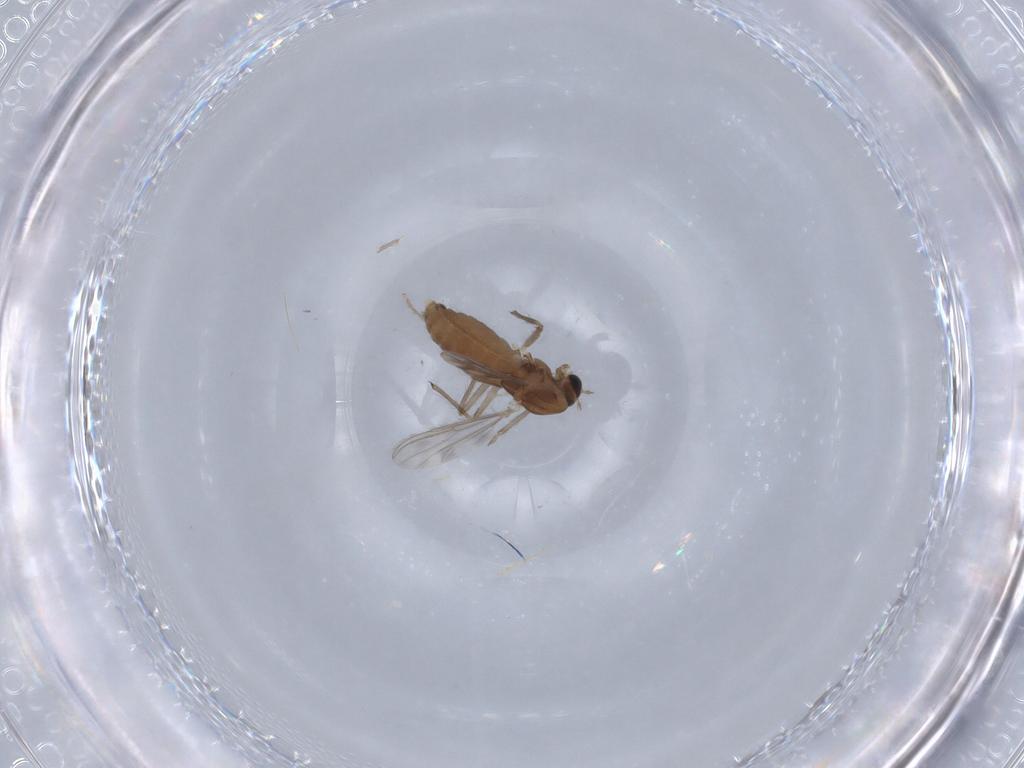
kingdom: Animalia
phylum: Arthropoda
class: Insecta
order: Diptera
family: Chironomidae
